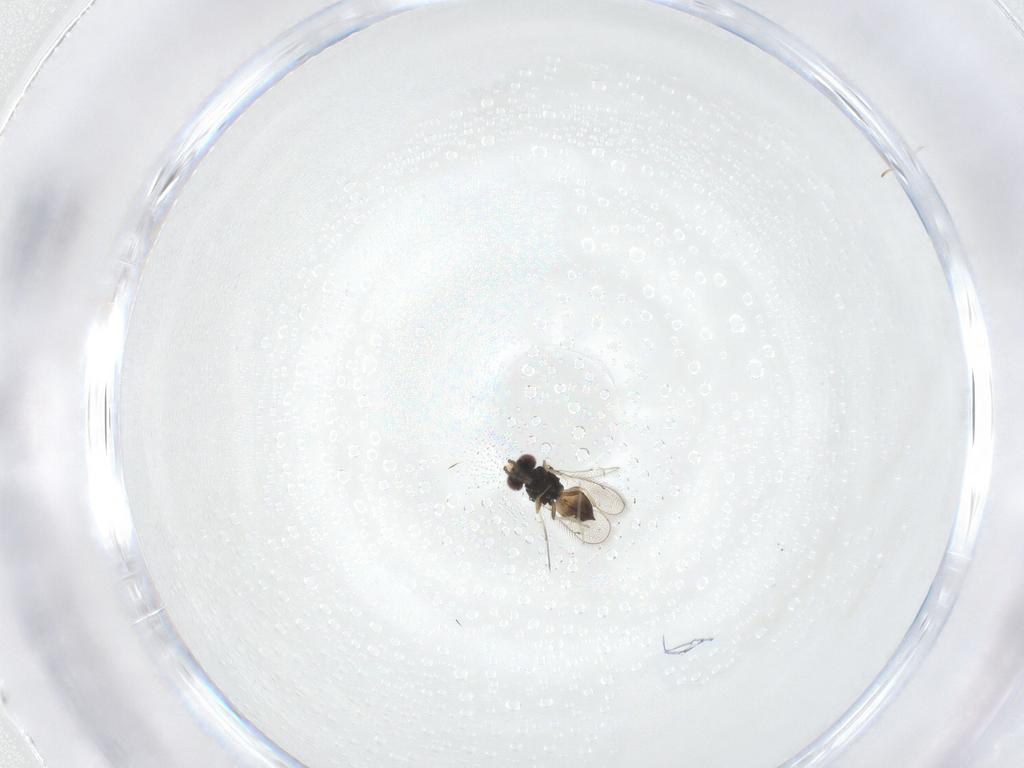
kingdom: Animalia
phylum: Arthropoda
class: Insecta
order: Hymenoptera
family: Eulophidae
